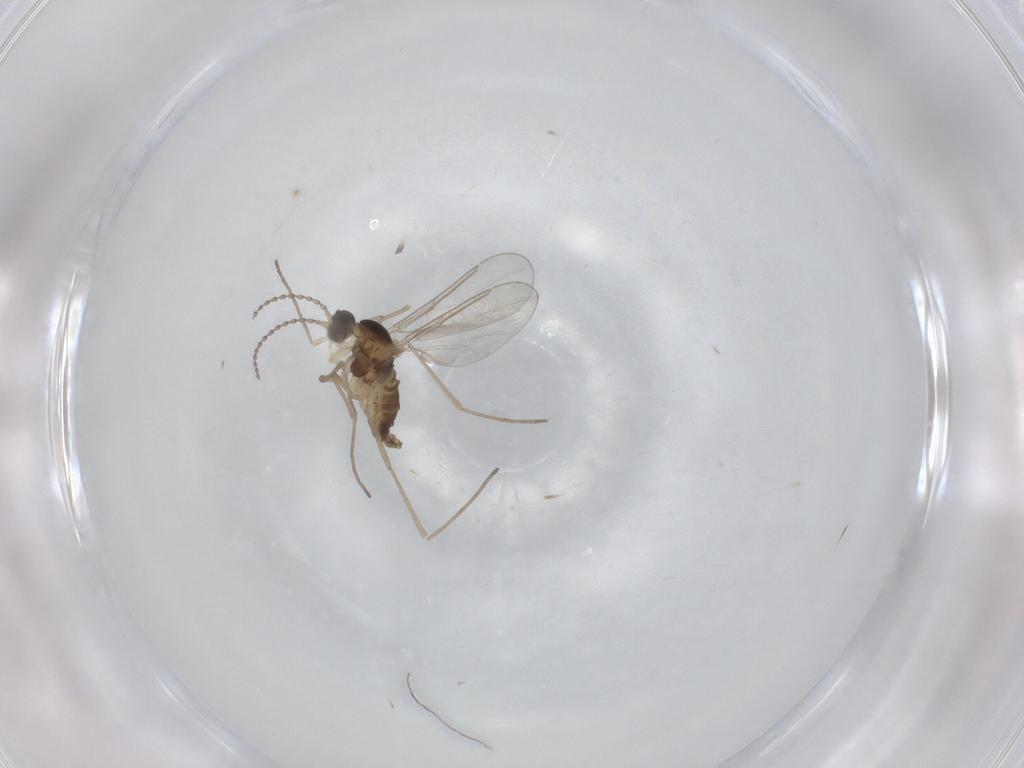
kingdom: Animalia
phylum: Arthropoda
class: Insecta
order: Diptera
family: Cecidomyiidae
